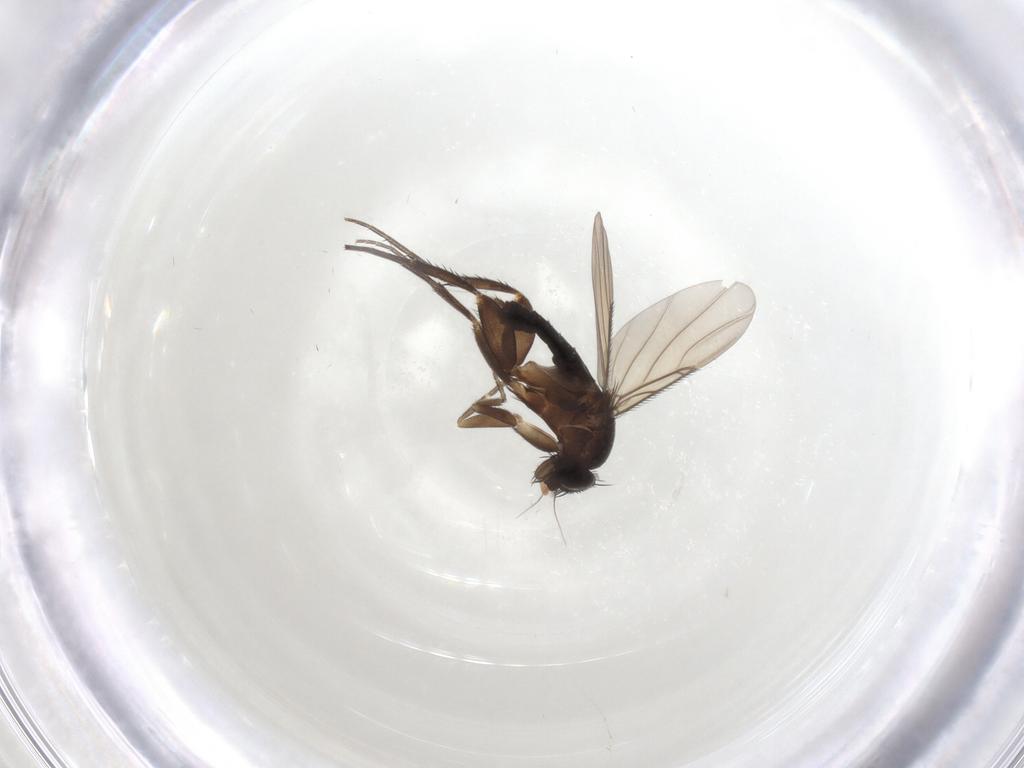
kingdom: Animalia
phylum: Arthropoda
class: Insecta
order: Diptera
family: Phoridae
